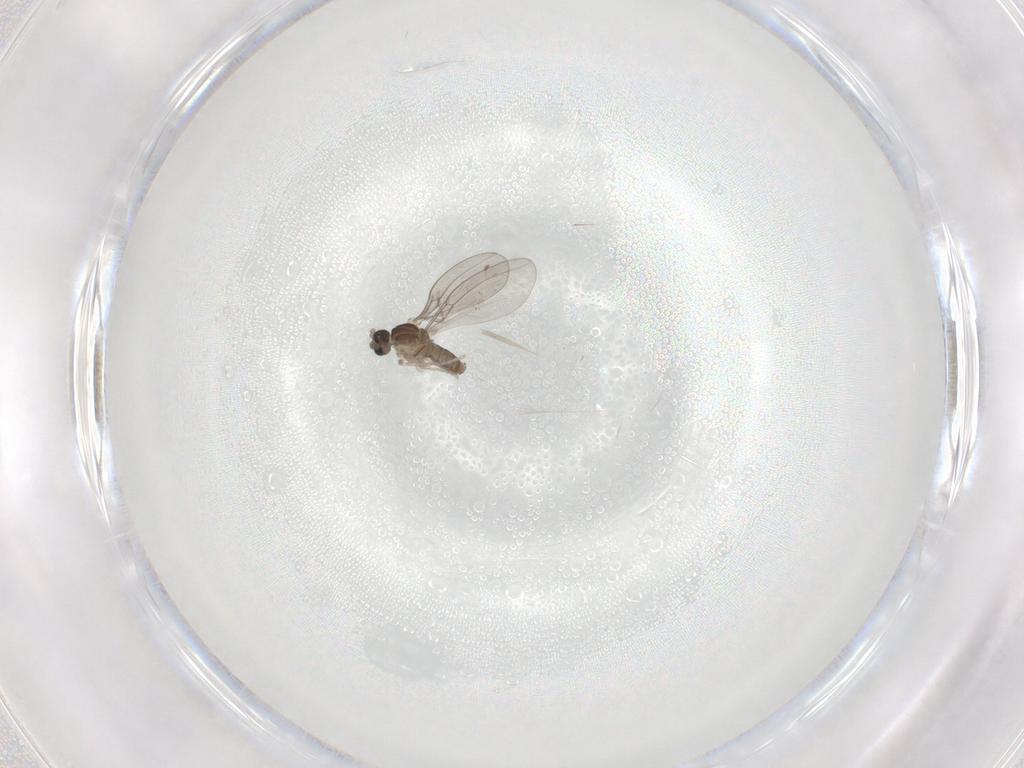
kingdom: Animalia
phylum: Arthropoda
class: Insecta
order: Diptera
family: Cecidomyiidae
